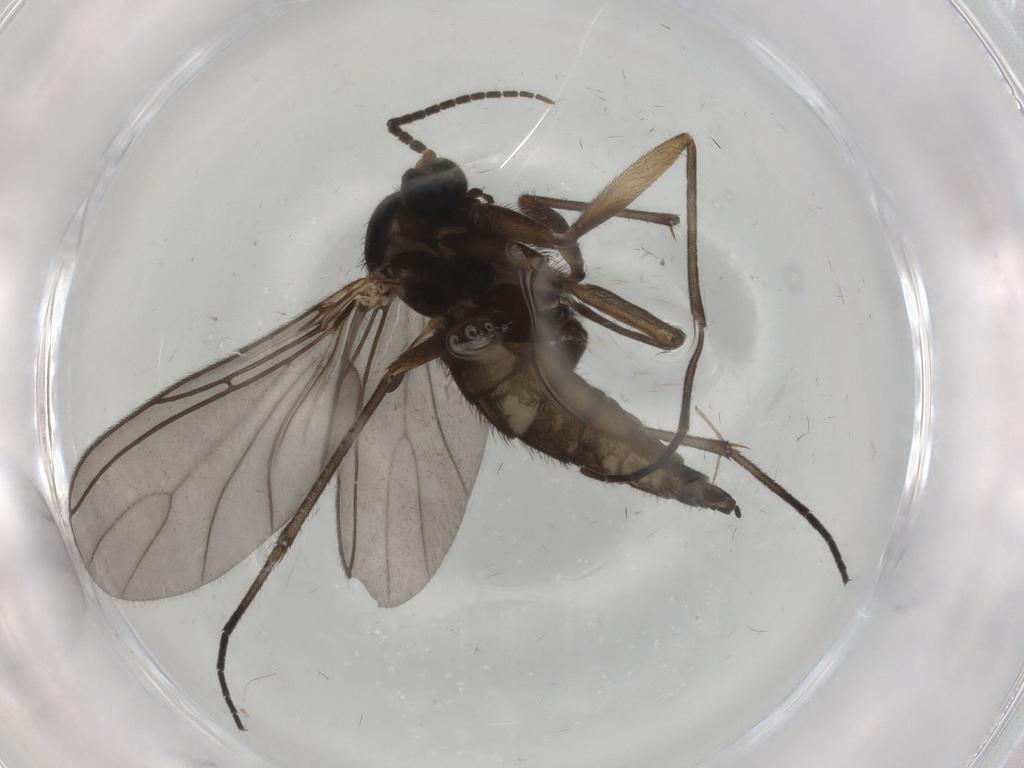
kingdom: Animalia
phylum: Arthropoda
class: Insecta
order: Diptera
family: Sciaridae
